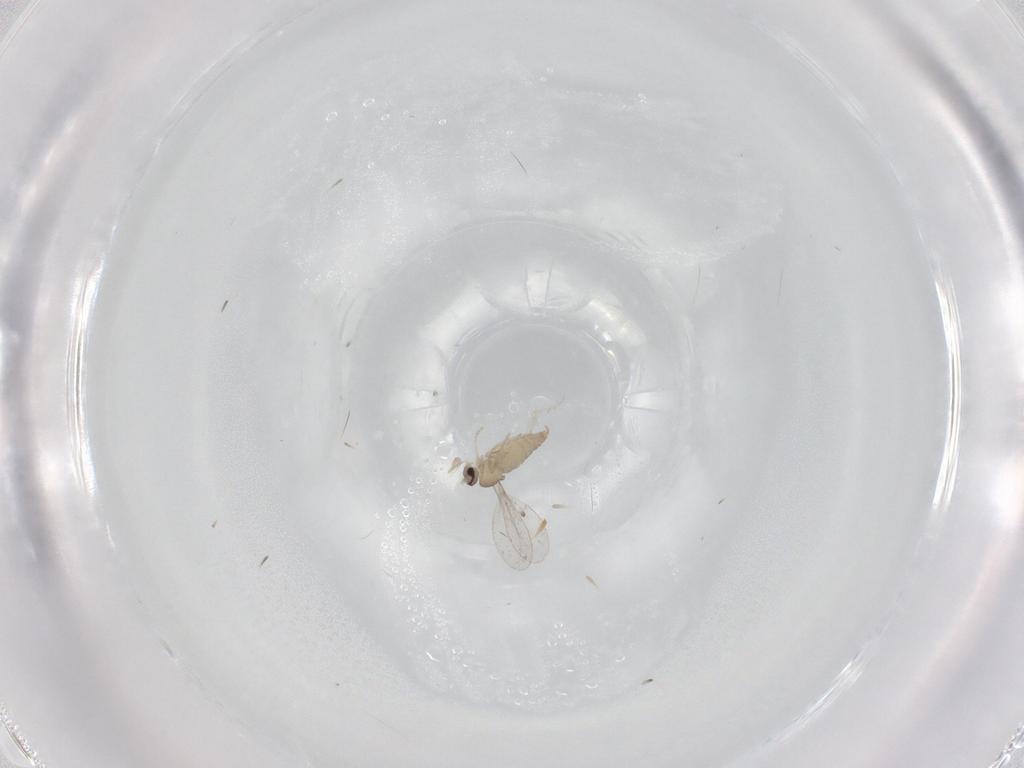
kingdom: Animalia
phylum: Arthropoda
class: Insecta
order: Diptera
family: Cecidomyiidae
